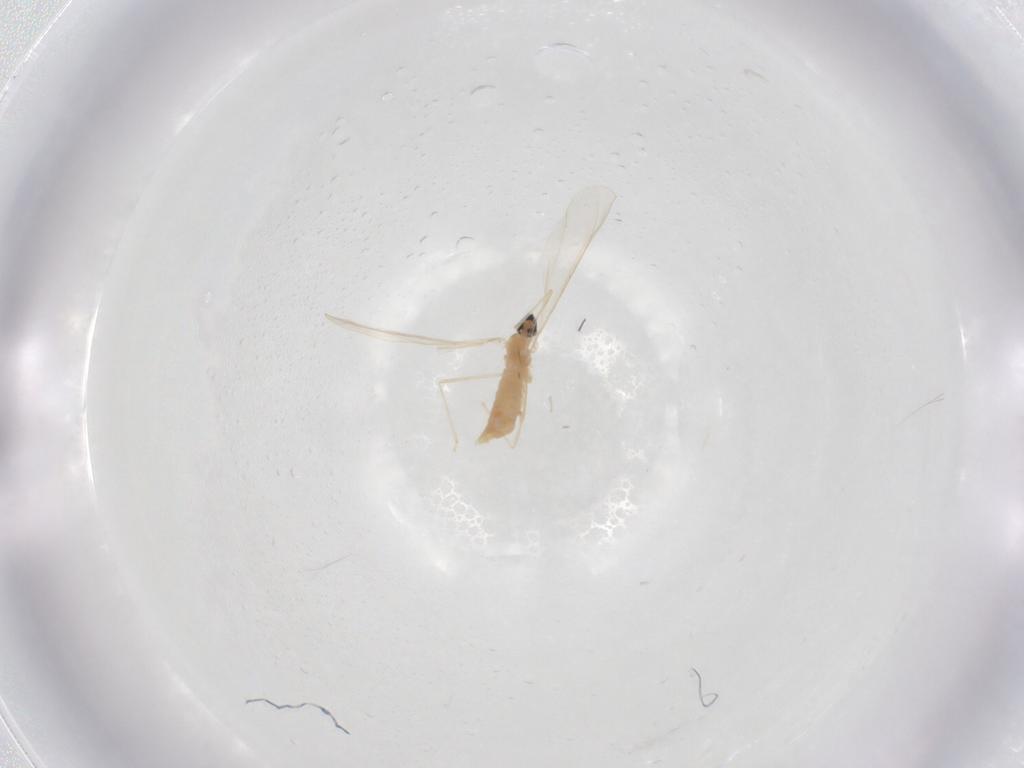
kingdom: Animalia
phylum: Arthropoda
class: Insecta
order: Diptera
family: Cecidomyiidae
